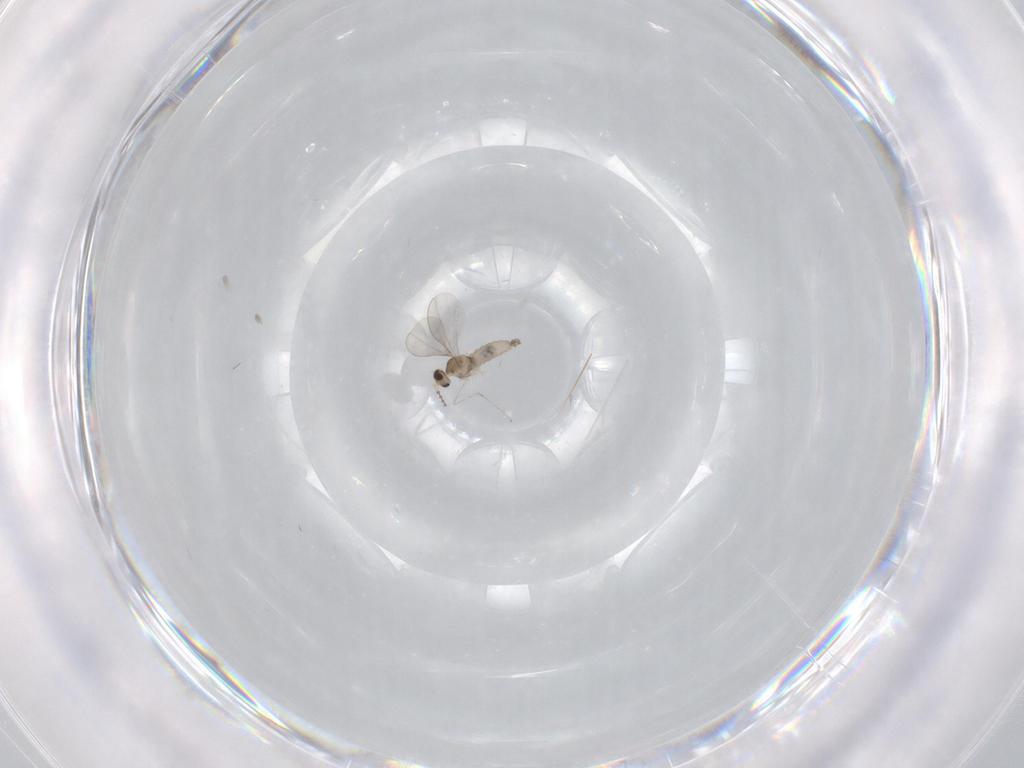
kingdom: Animalia
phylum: Arthropoda
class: Insecta
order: Diptera
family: Cecidomyiidae
